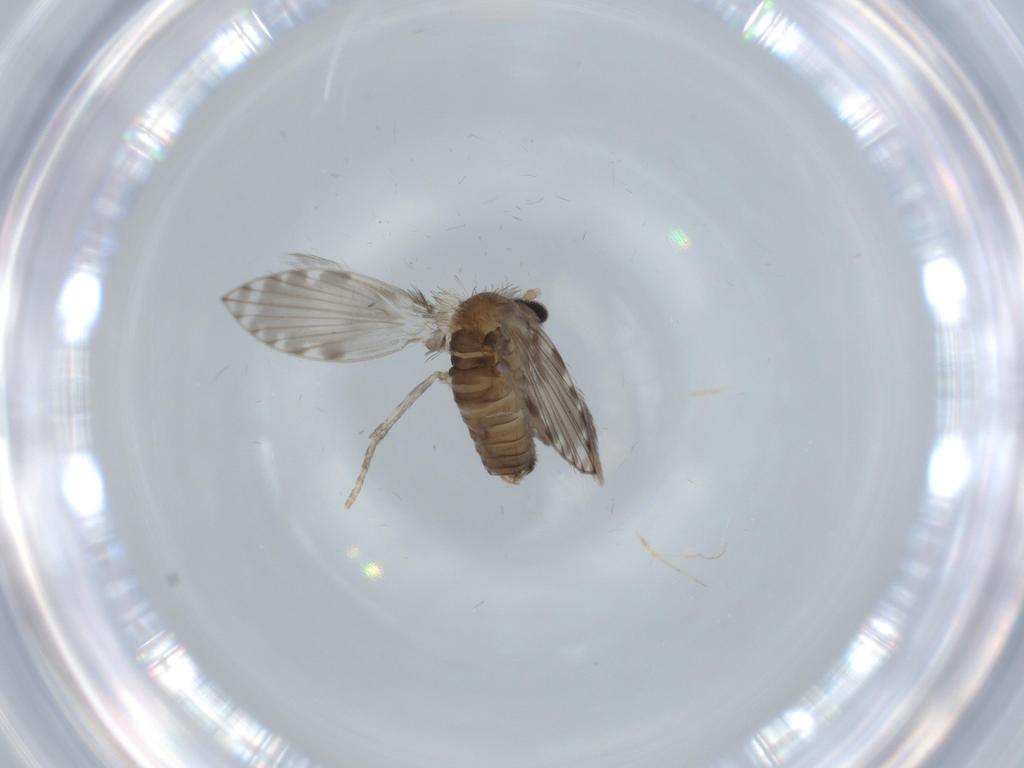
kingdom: Animalia
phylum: Arthropoda
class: Insecta
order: Diptera
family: Psychodidae
